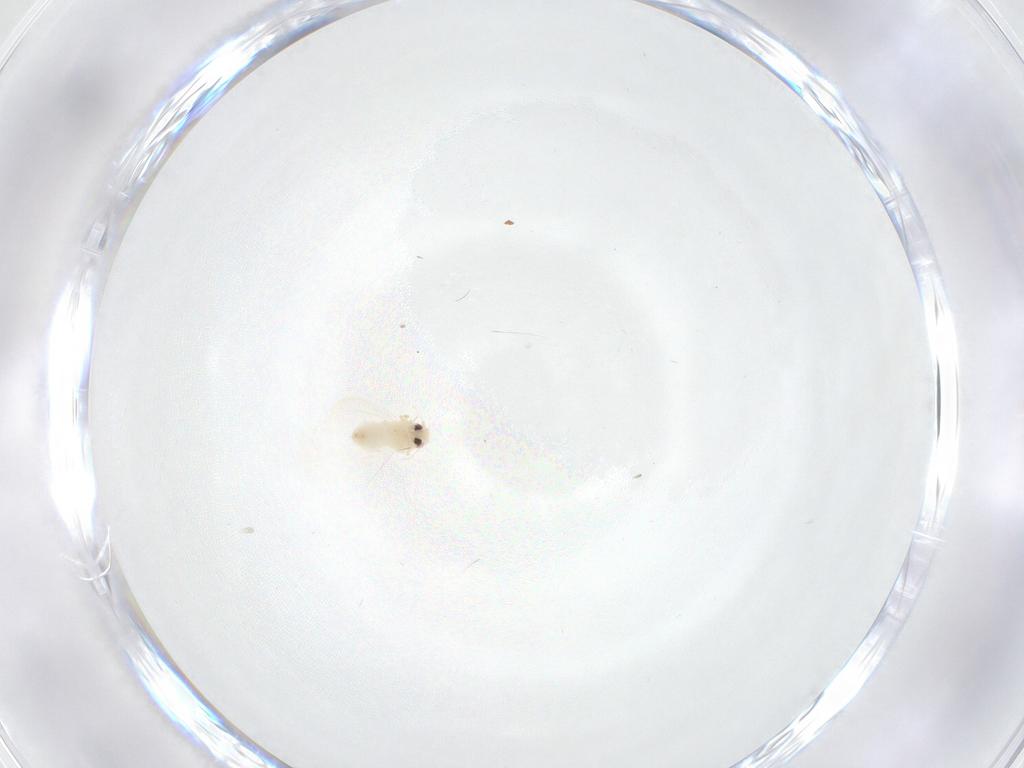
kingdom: Animalia
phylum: Arthropoda
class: Insecta
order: Hemiptera
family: Aleyrodidae
